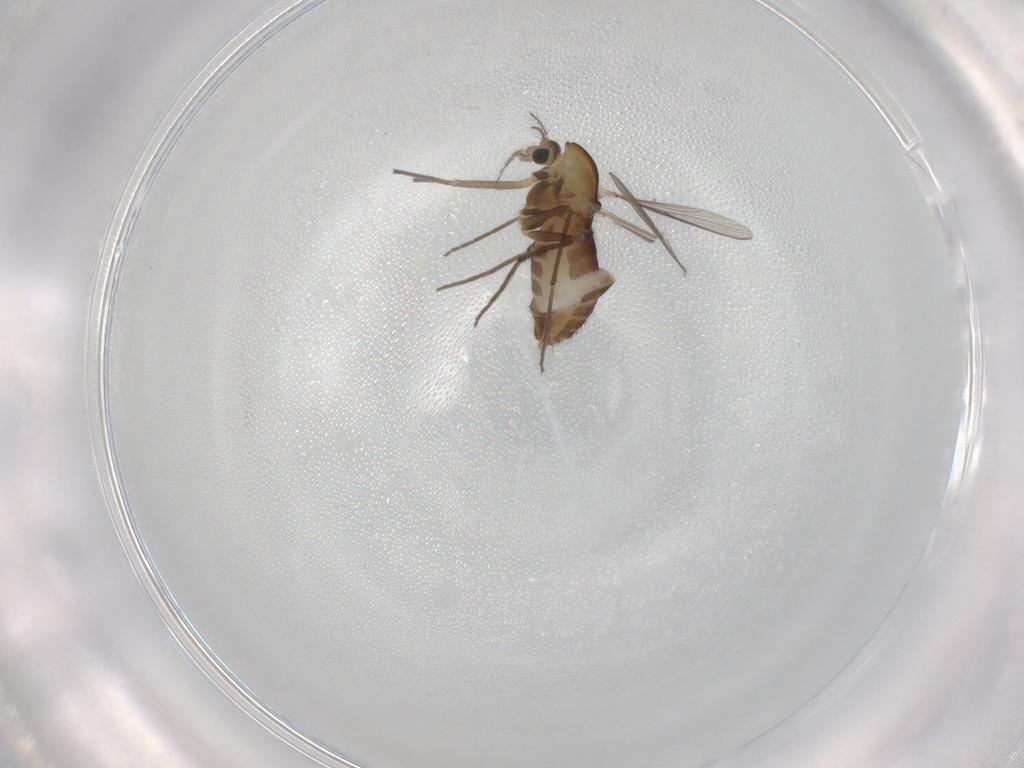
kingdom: Animalia
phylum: Arthropoda
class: Insecta
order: Diptera
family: Chironomidae
